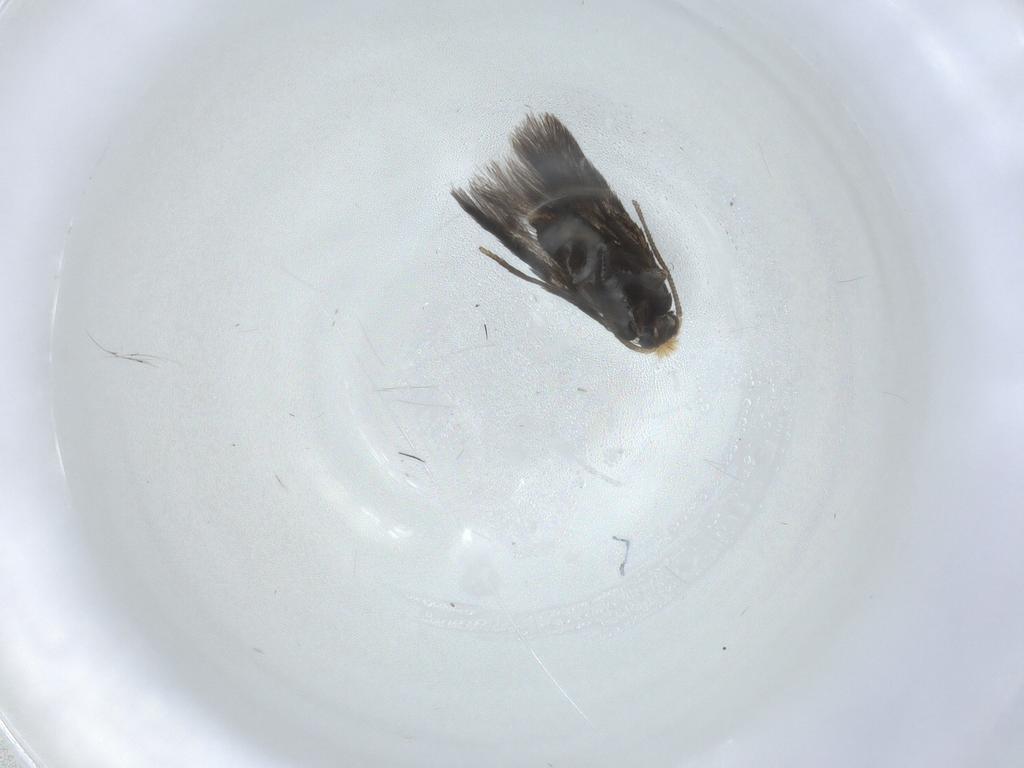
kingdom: Animalia
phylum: Arthropoda
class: Insecta
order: Lepidoptera
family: Nepticulidae
